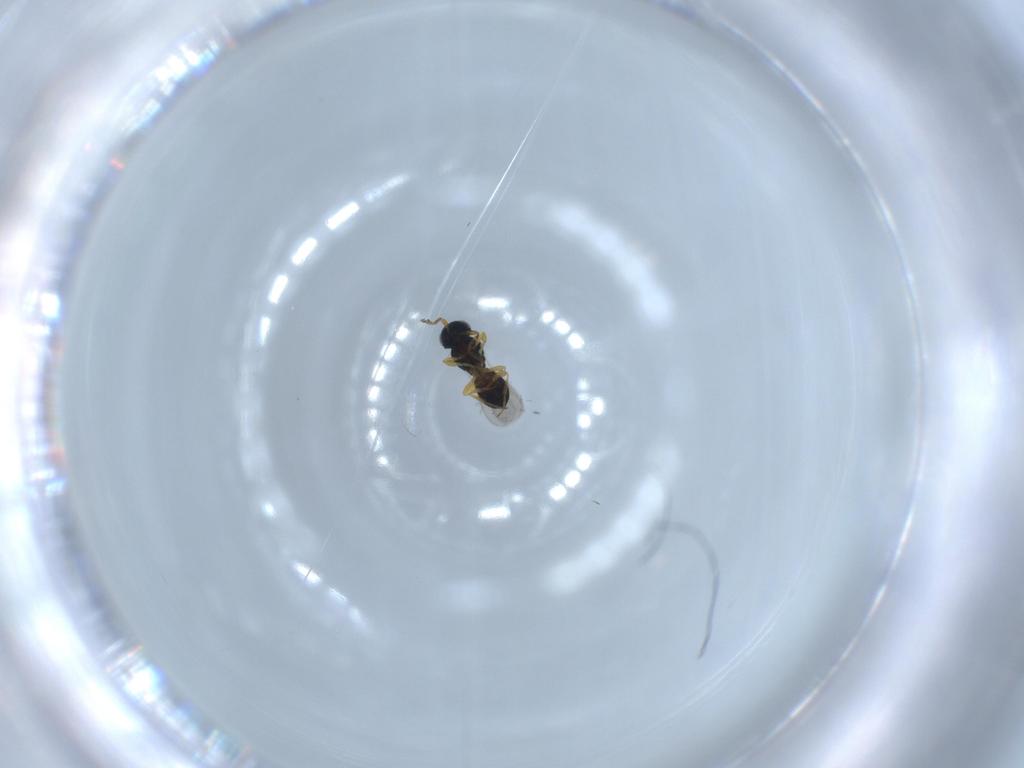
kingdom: Animalia
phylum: Arthropoda
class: Insecta
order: Hymenoptera
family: Scelionidae
